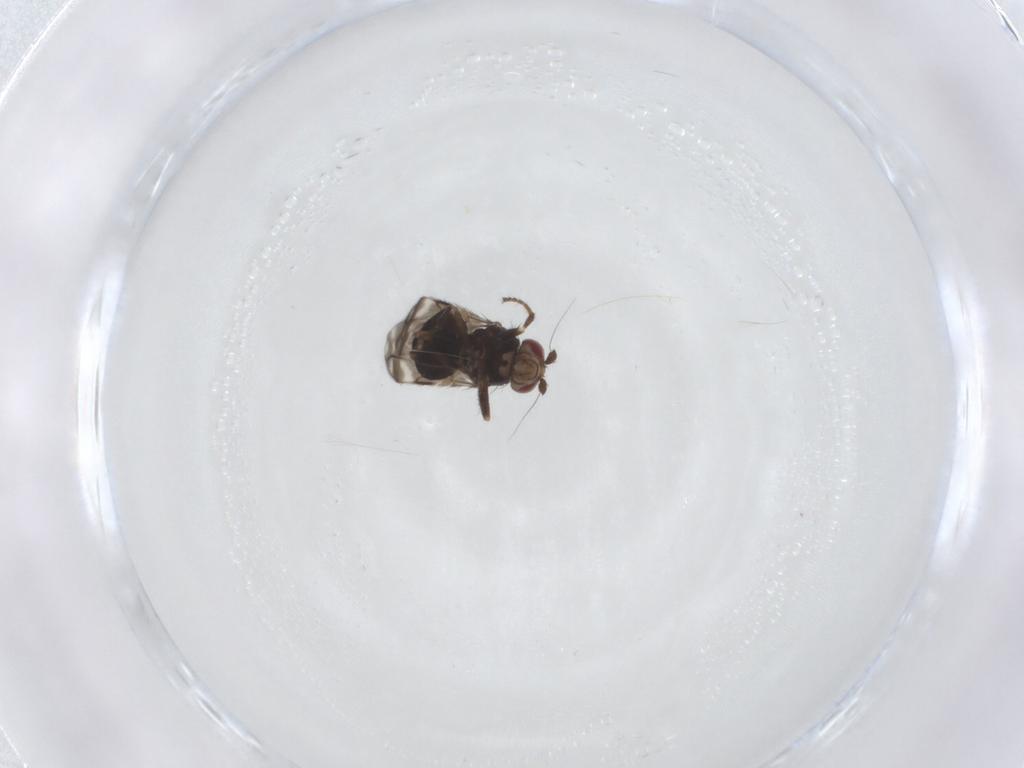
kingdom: Animalia
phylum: Arthropoda
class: Insecta
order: Diptera
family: Sphaeroceridae
